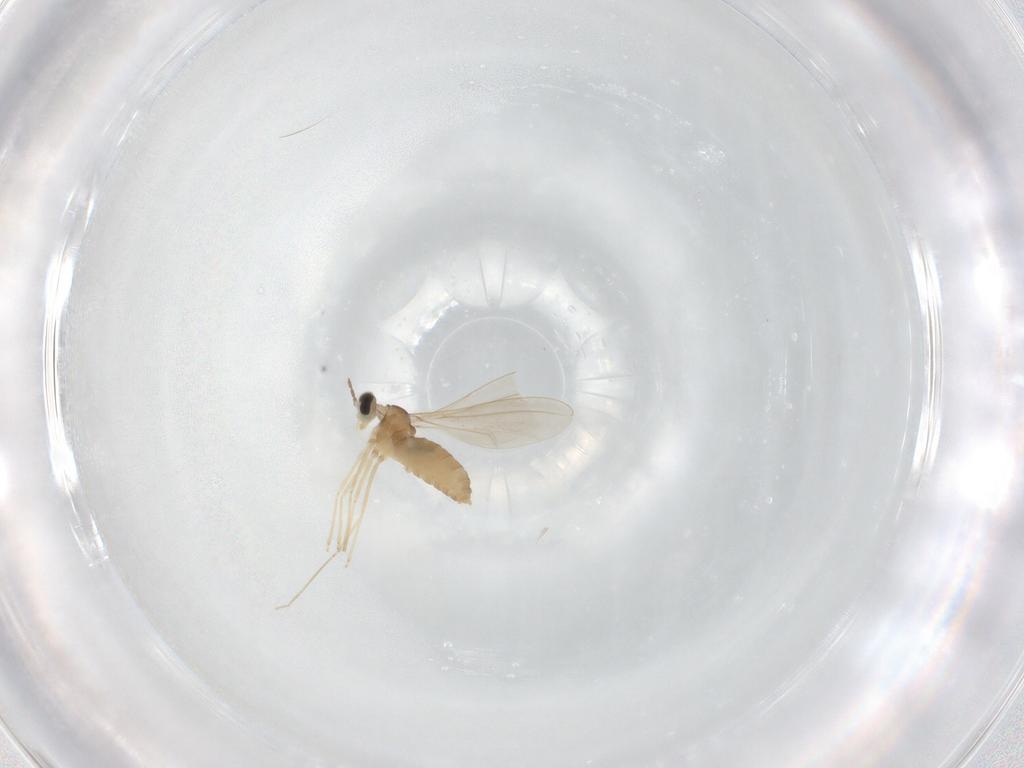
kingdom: Animalia
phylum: Arthropoda
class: Insecta
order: Diptera
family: Cecidomyiidae
